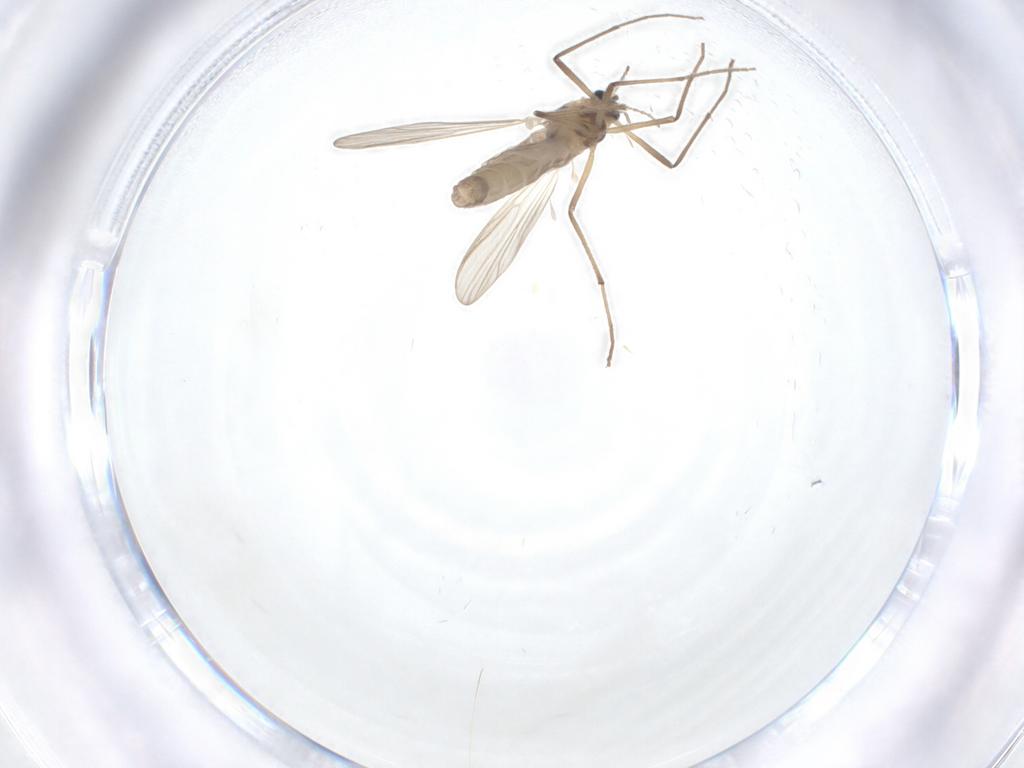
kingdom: Animalia
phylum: Arthropoda
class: Insecta
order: Diptera
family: Chironomidae
